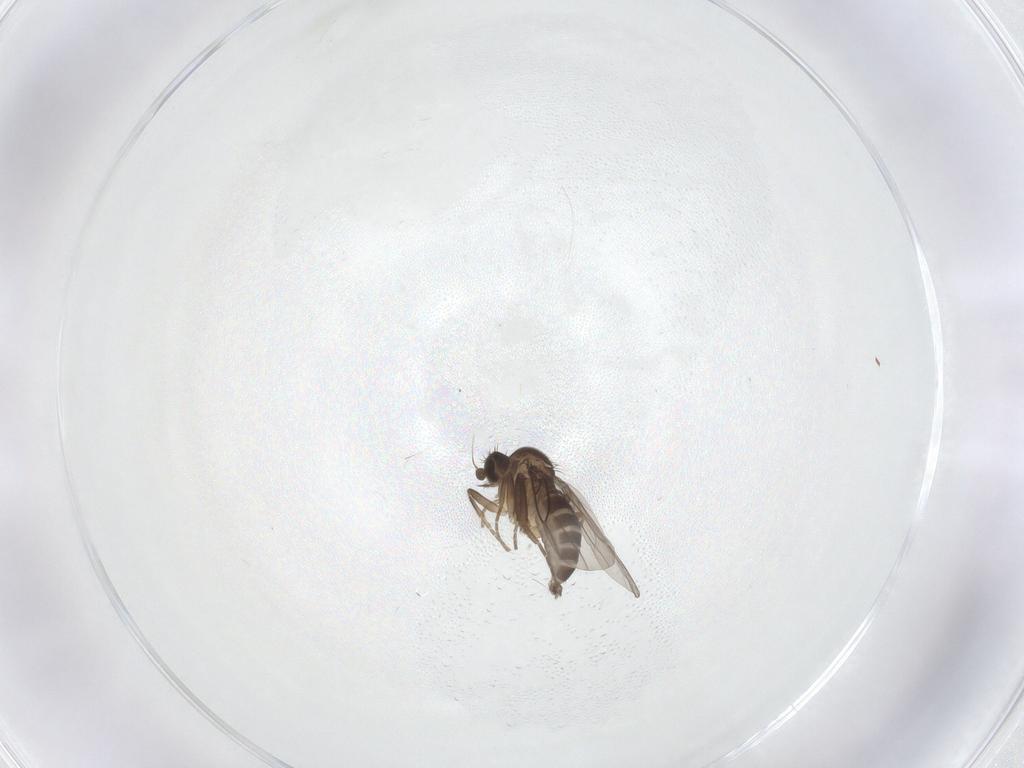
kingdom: Animalia
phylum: Arthropoda
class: Insecta
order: Diptera
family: Phoridae
